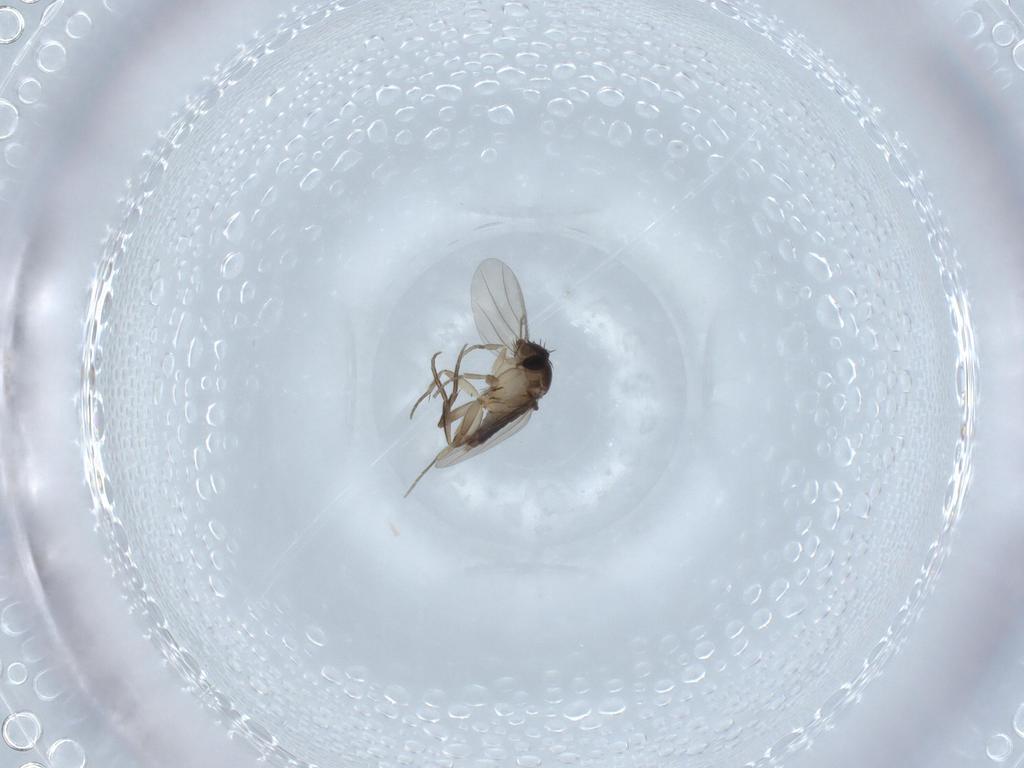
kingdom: Animalia
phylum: Arthropoda
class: Insecta
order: Diptera
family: Phoridae
